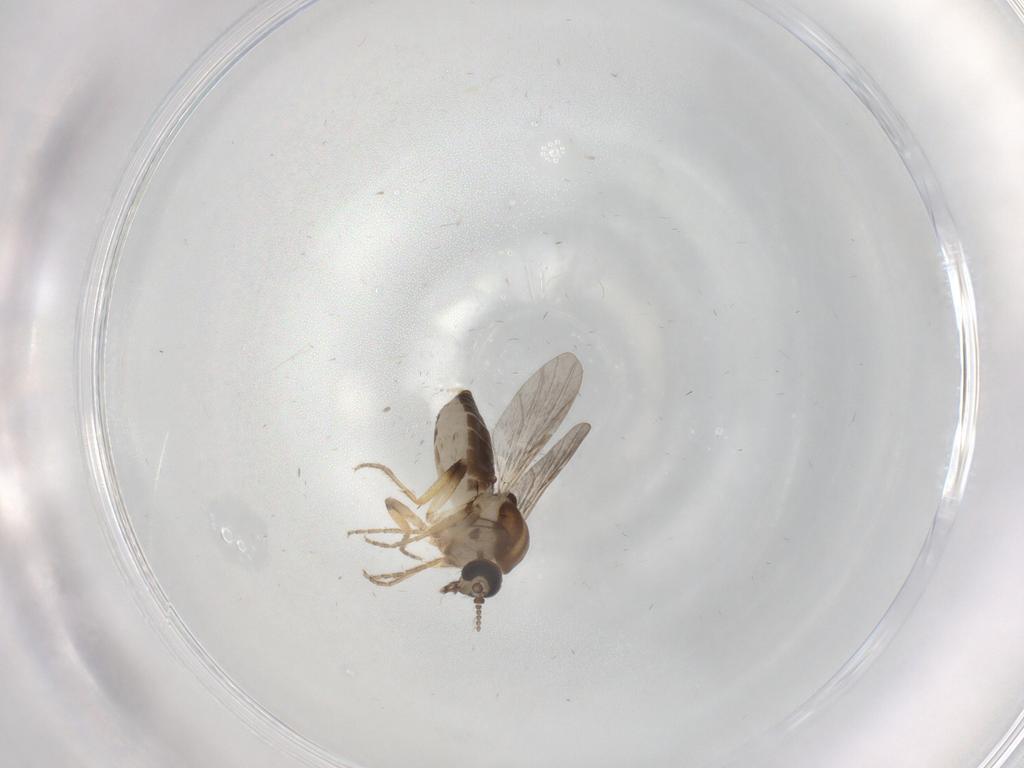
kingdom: Animalia
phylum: Arthropoda
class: Insecta
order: Diptera
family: Ceratopogonidae
